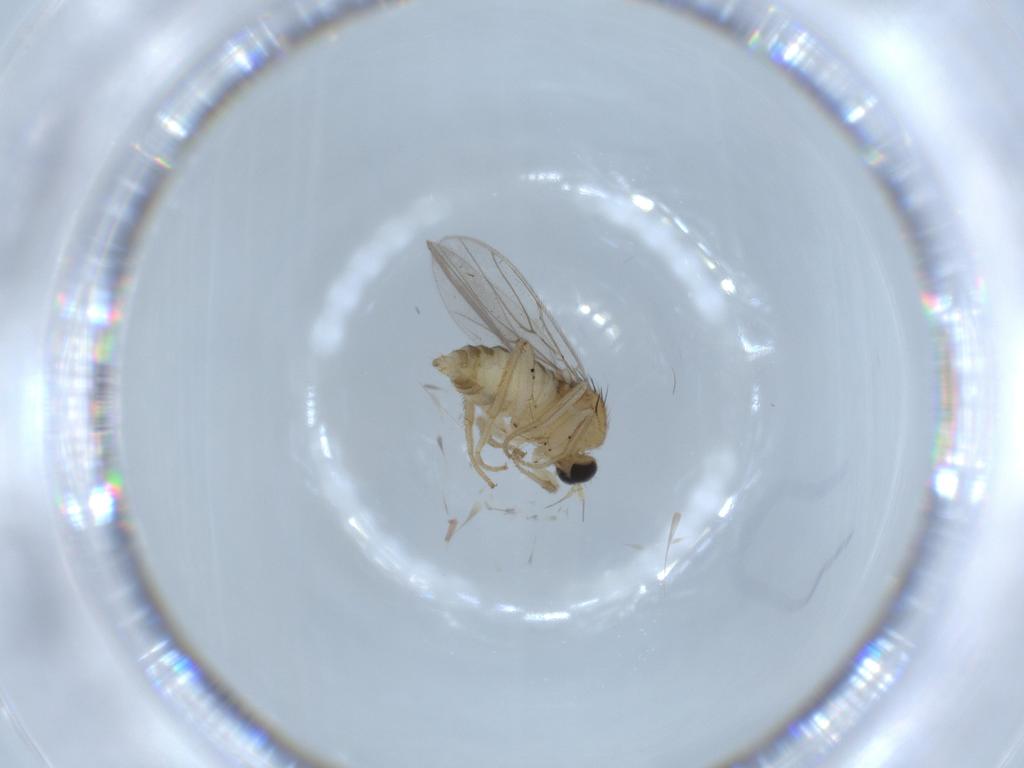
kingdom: Animalia
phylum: Arthropoda
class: Insecta
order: Diptera
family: Hybotidae
